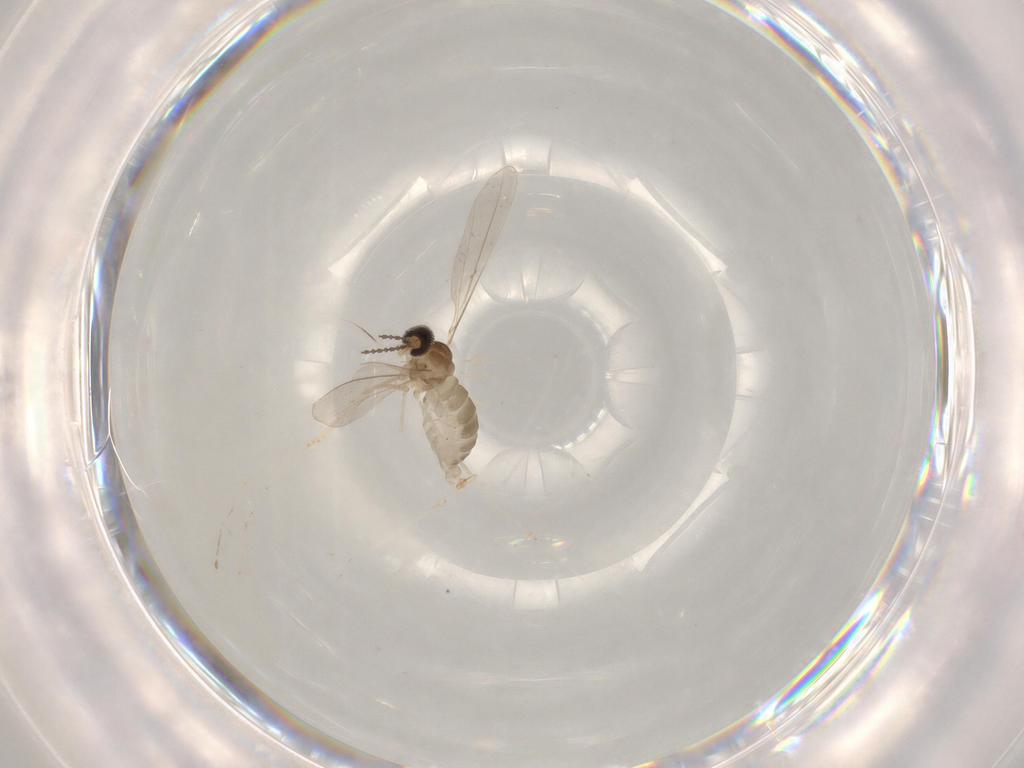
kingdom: Animalia
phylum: Arthropoda
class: Insecta
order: Diptera
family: Cecidomyiidae
